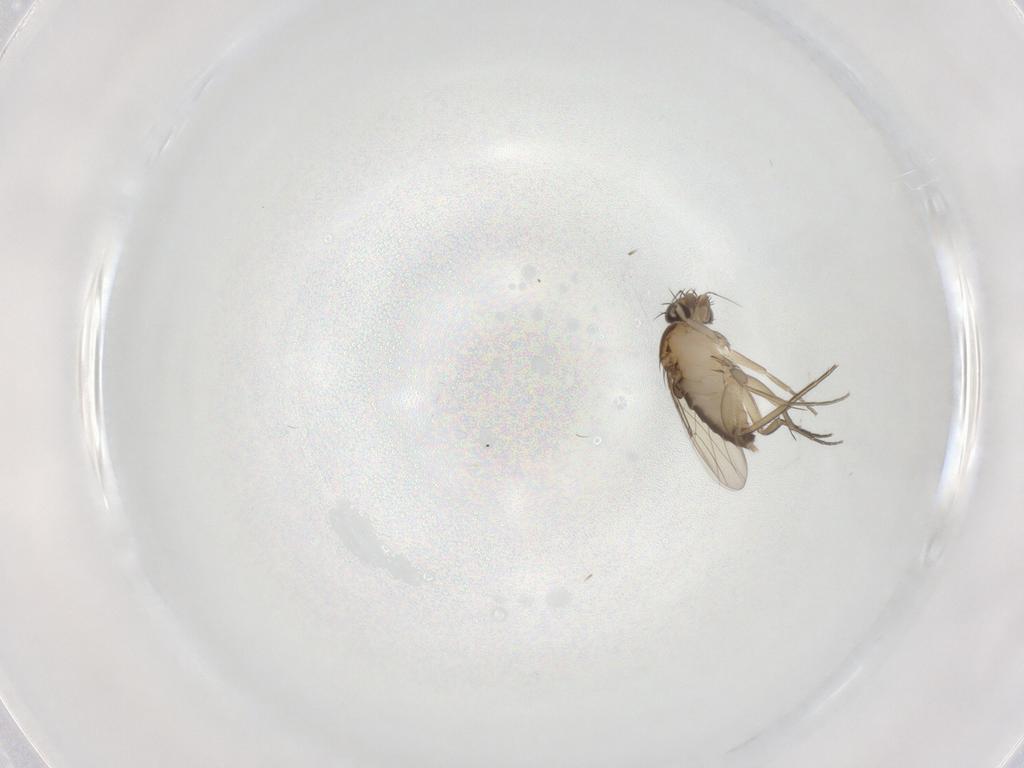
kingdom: Animalia
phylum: Arthropoda
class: Insecta
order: Diptera
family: Phoridae
